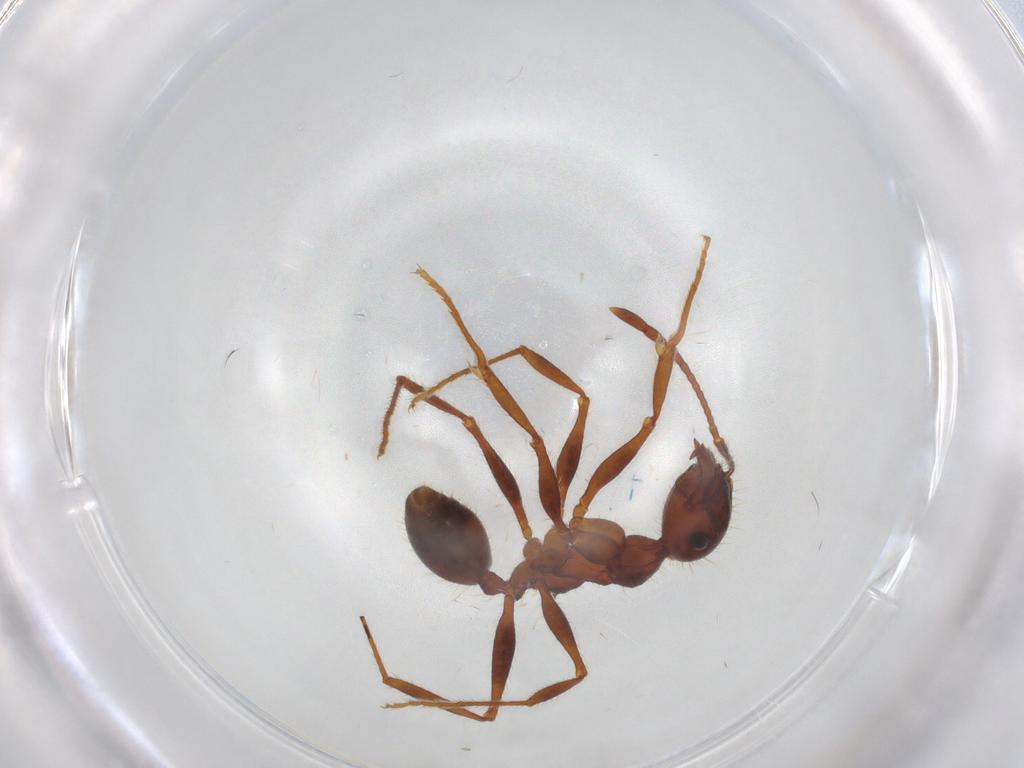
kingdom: Animalia
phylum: Arthropoda
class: Insecta
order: Hymenoptera
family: Formicidae
